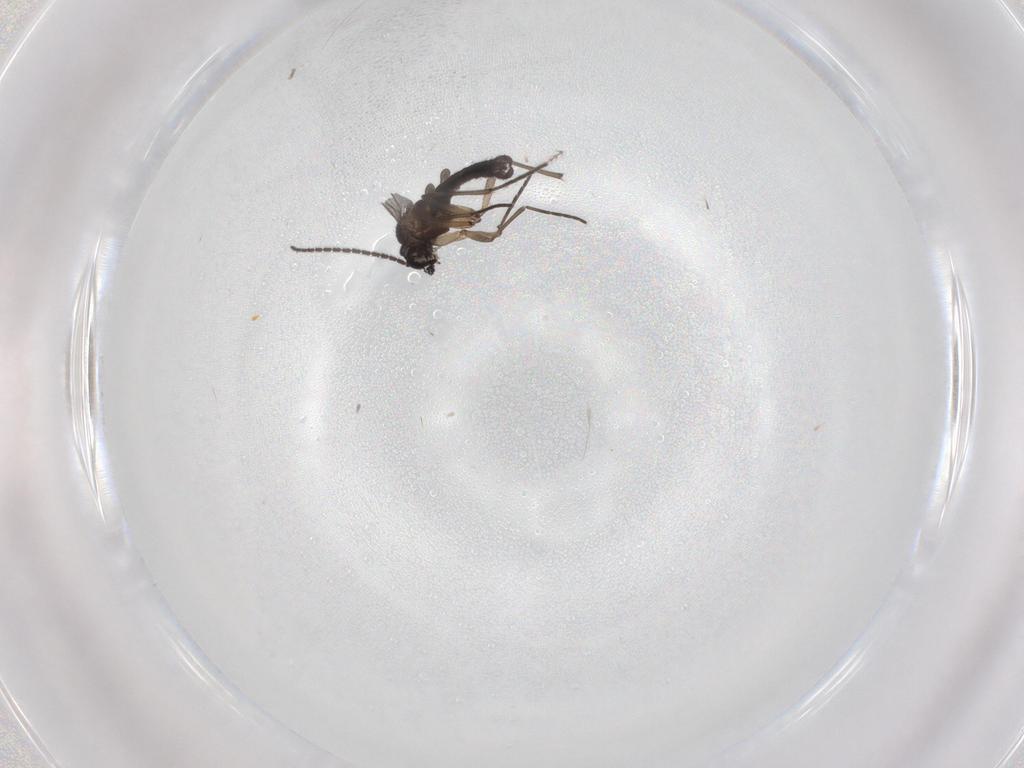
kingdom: Animalia
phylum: Arthropoda
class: Insecta
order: Diptera
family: Sciaridae
